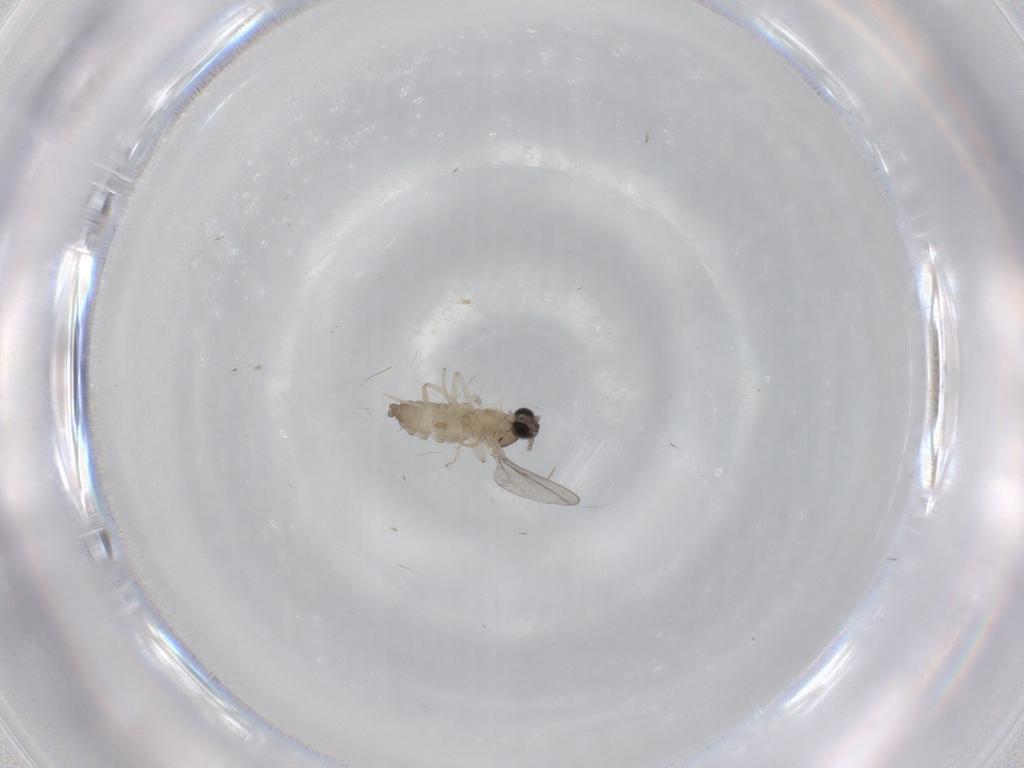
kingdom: Animalia
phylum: Arthropoda
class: Insecta
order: Diptera
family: Cecidomyiidae
